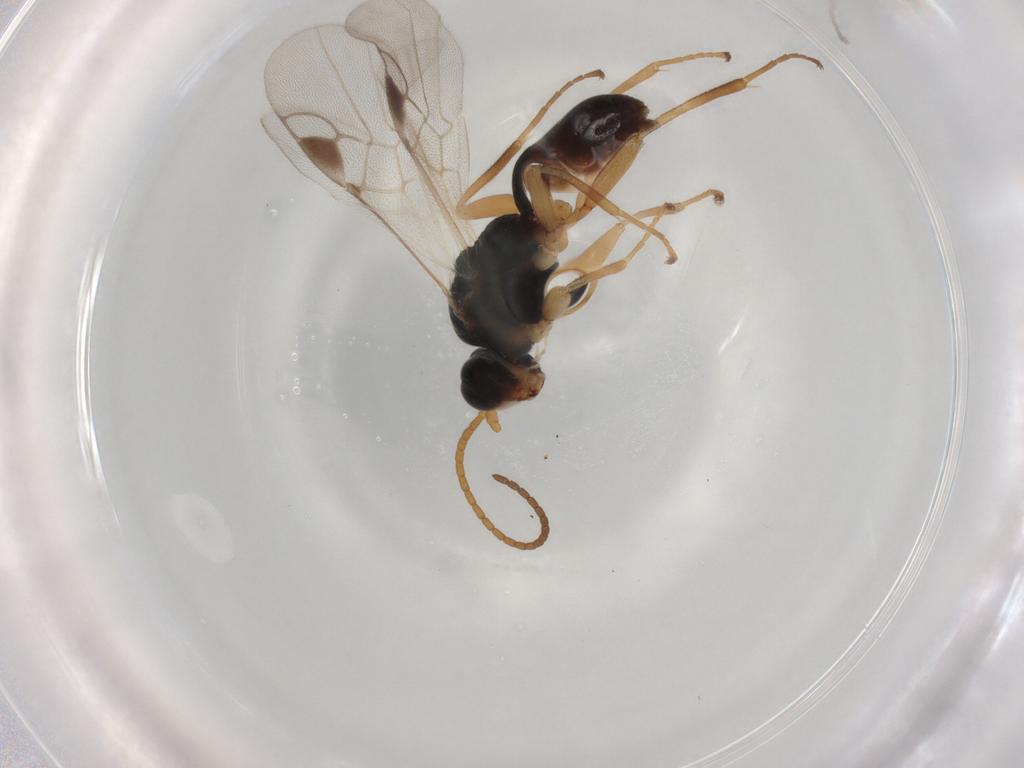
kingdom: Animalia
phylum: Arthropoda
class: Insecta
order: Hymenoptera
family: Braconidae
